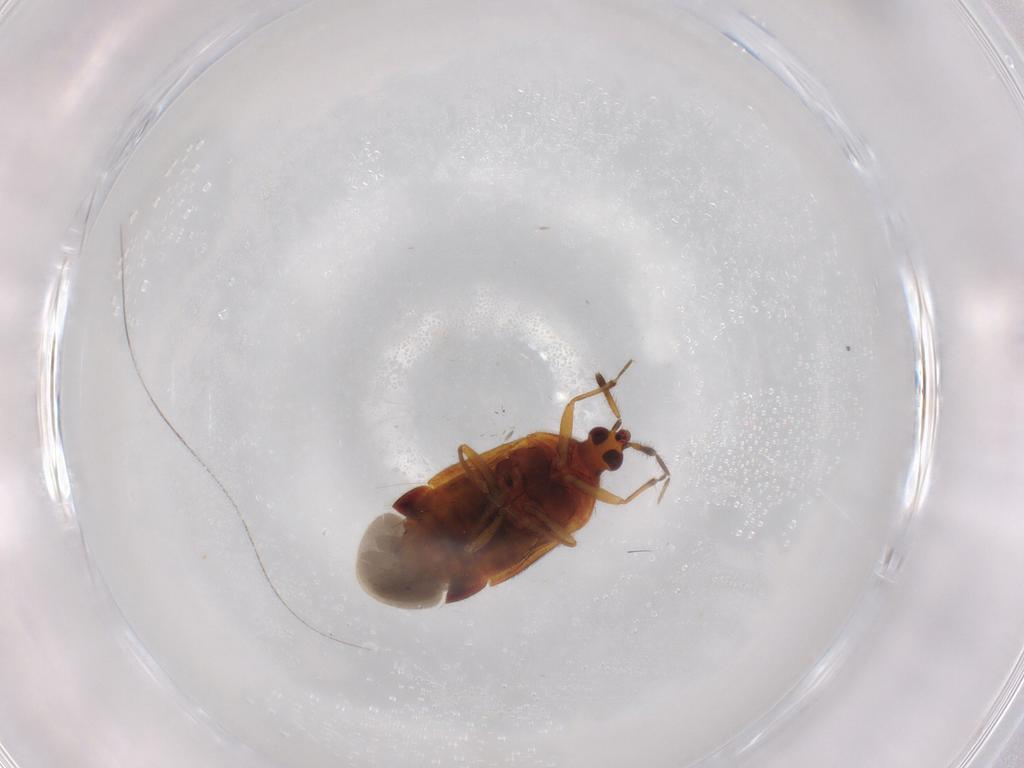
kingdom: Animalia
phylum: Arthropoda
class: Insecta
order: Hemiptera
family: Anthocoridae
